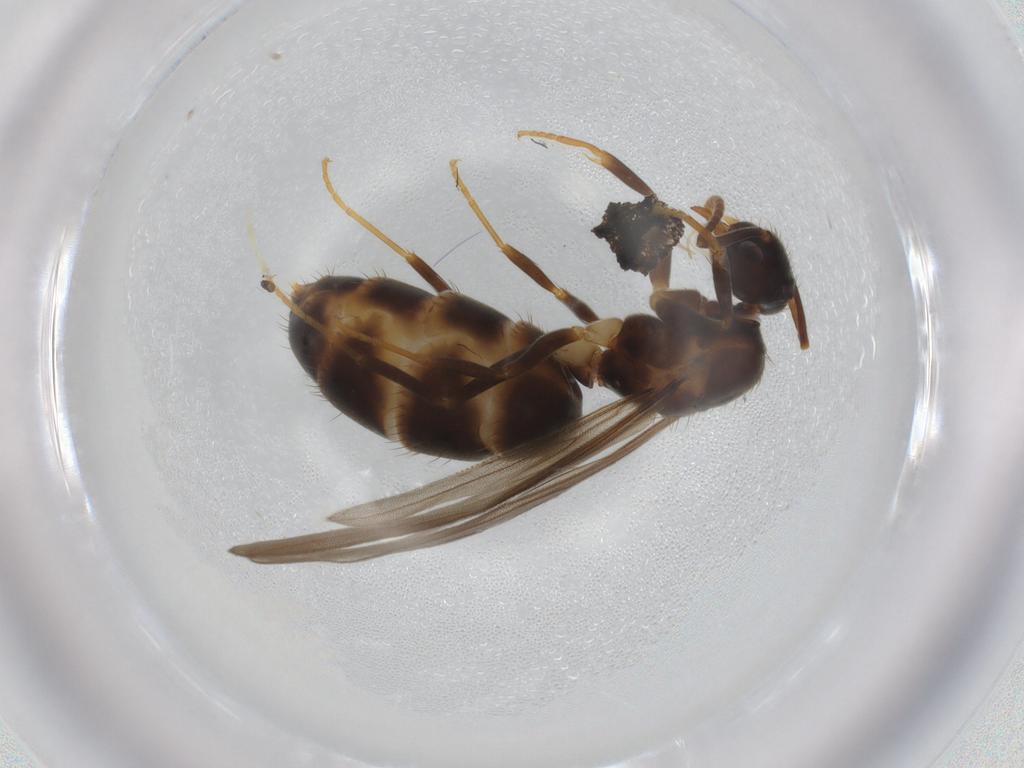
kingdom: Animalia
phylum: Arthropoda
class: Insecta
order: Hymenoptera
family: Formicidae
